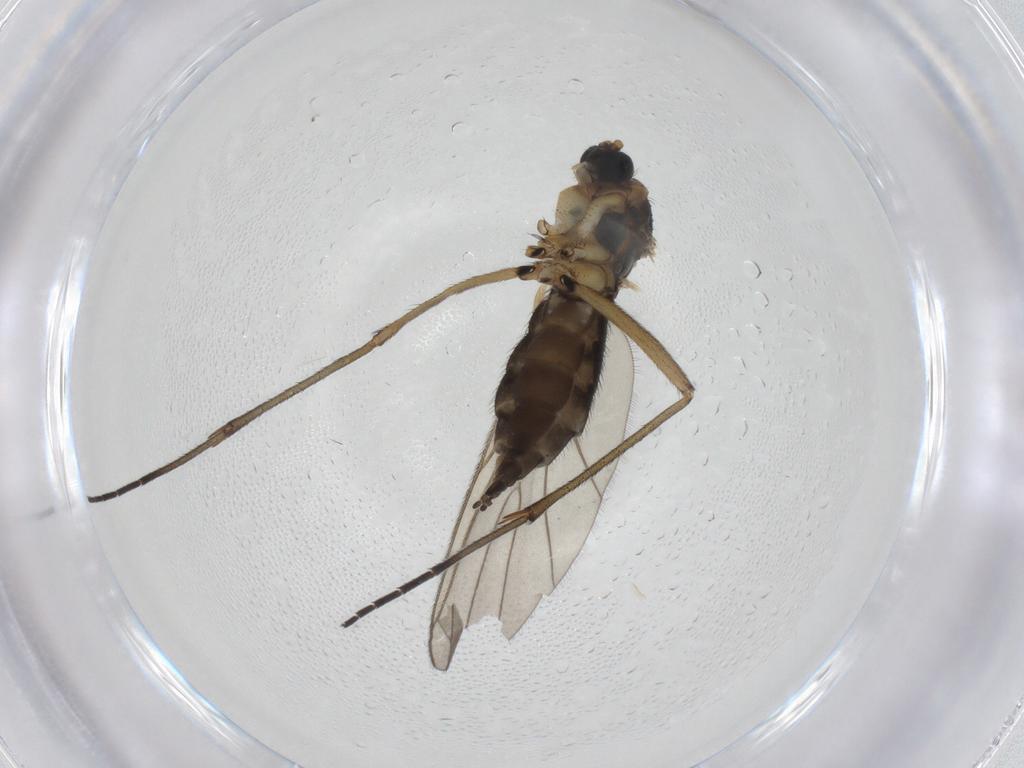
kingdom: Animalia
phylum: Arthropoda
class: Insecta
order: Diptera
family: Sciaridae
